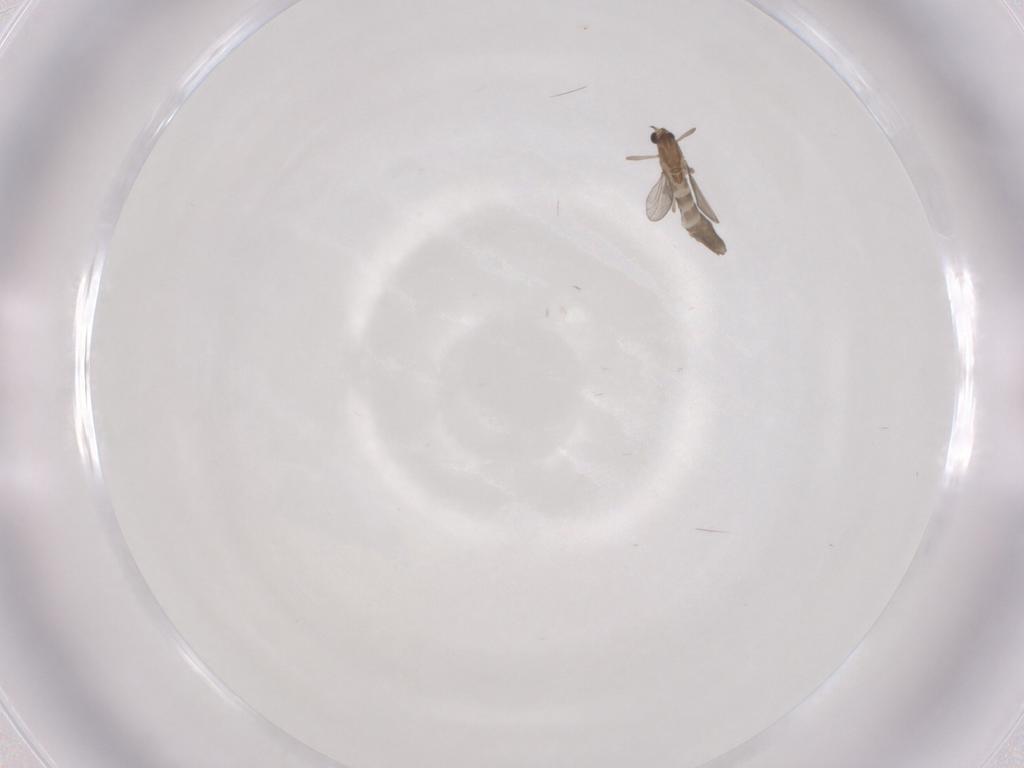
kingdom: Animalia
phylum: Arthropoda
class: Insecta
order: Diptera
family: Chironomidae
